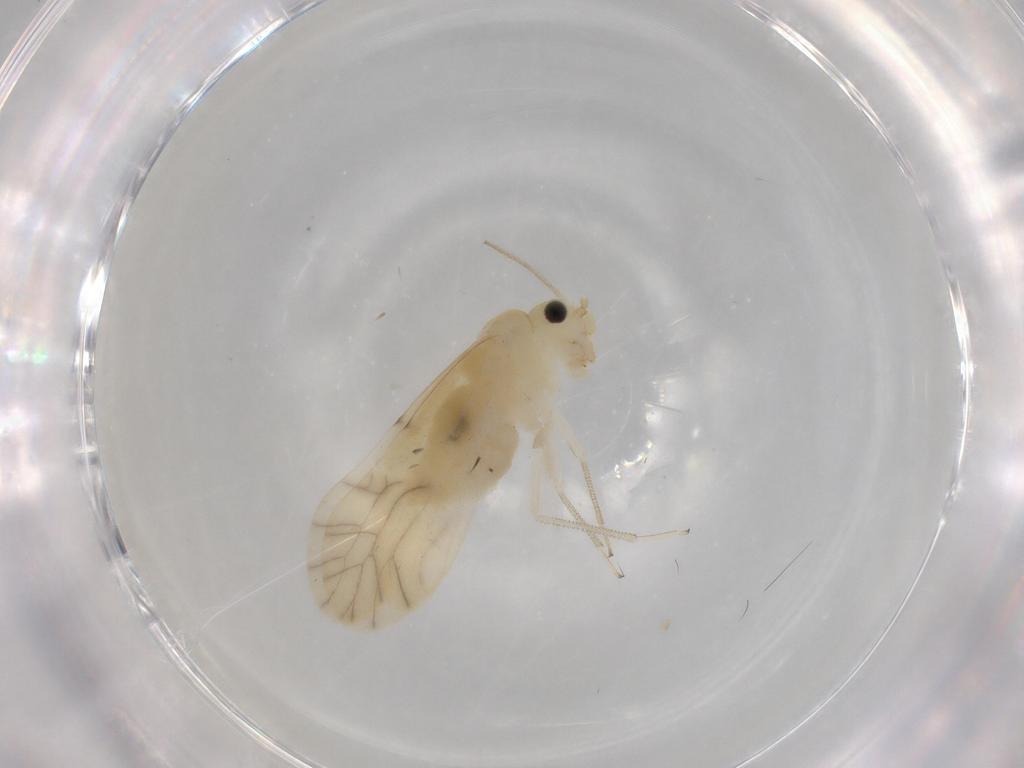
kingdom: Animalia
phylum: Arthropoda
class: Insecta
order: Psocodea
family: Caeciliusidae
